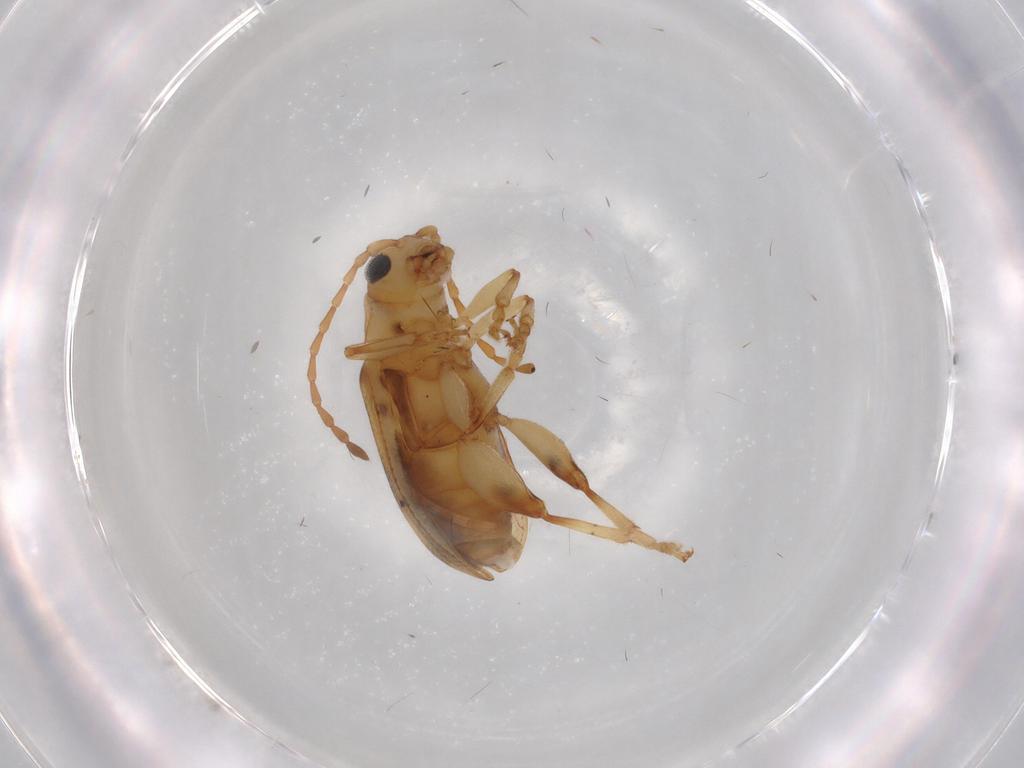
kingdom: Animalia
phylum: Arthropoda
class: Insecta
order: Coleoptera
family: Chrysomelidae
